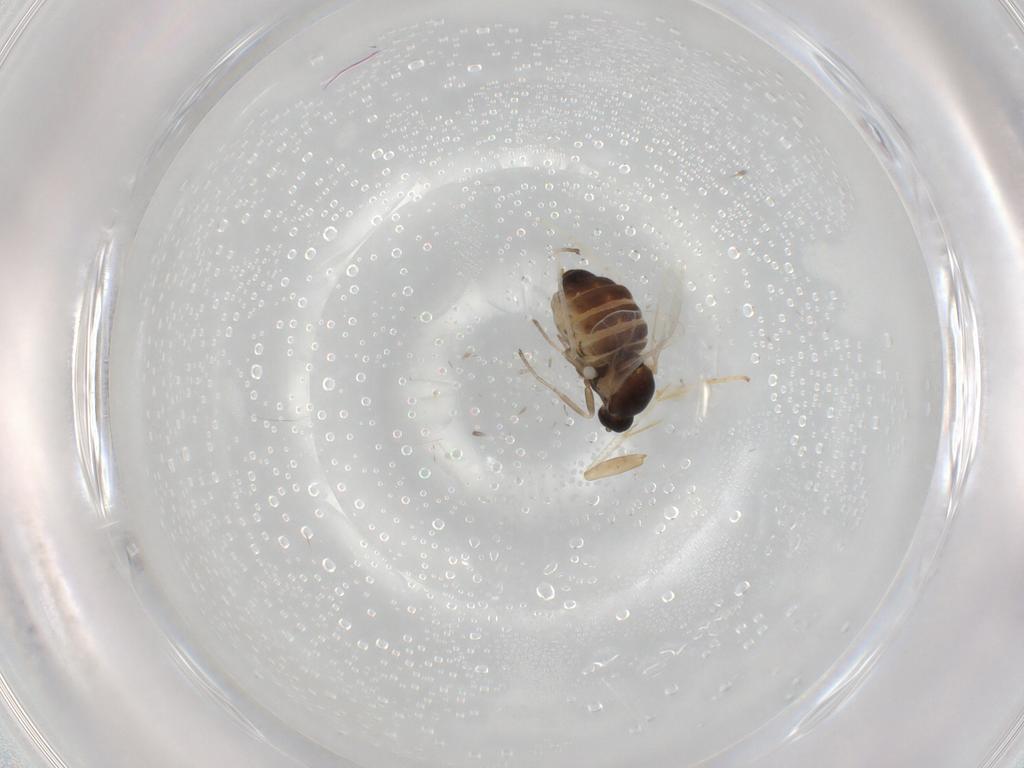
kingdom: Animalia
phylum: Arthropoda
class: Insecta
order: Diptera
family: Cecidomyiidae
